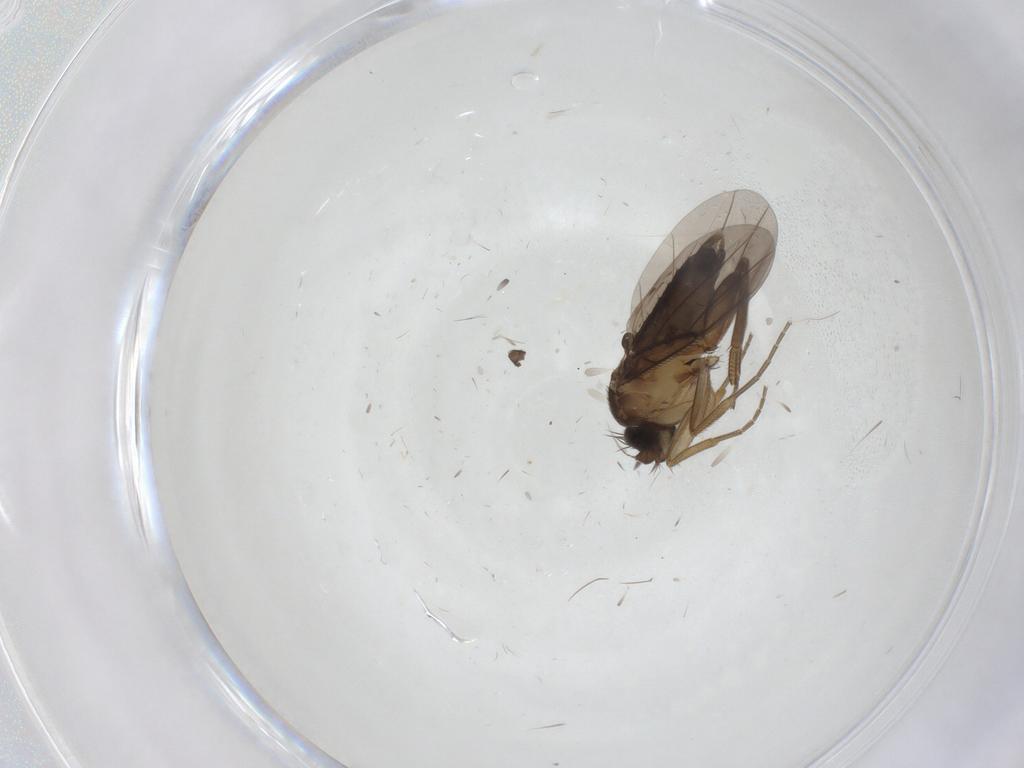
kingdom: Animalia
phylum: Arthropoda
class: Insecta
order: Diptera
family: Phoridae
